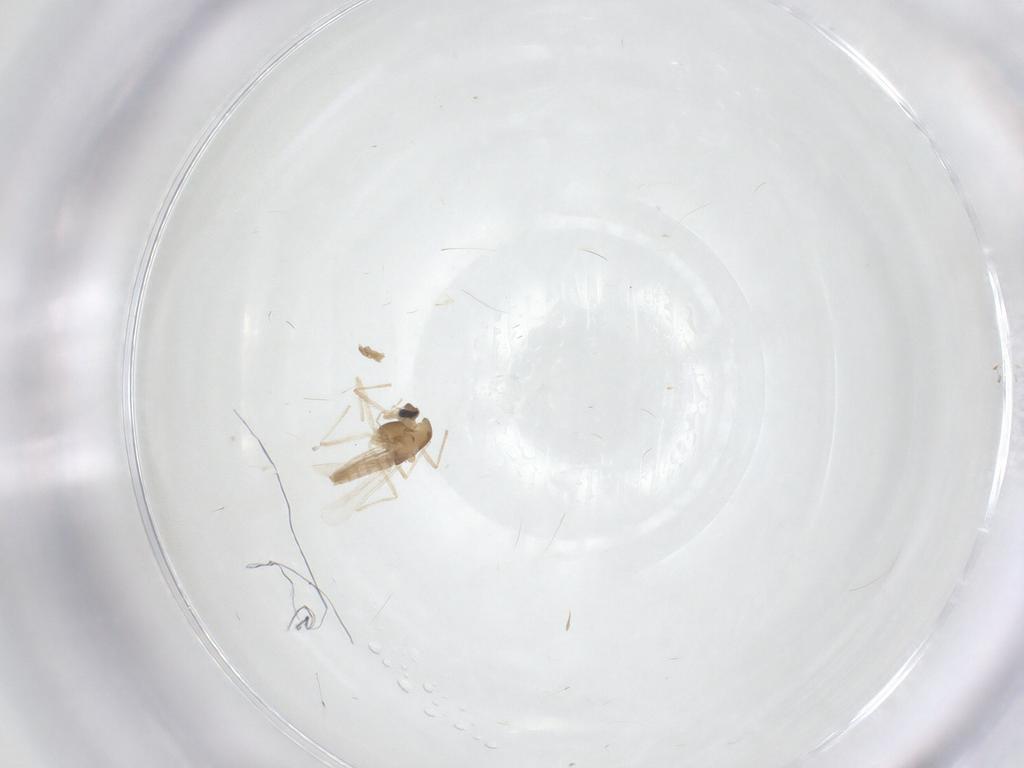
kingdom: Animalia
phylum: Arthropoda
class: Insecta
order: Diptera
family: Chironomidae
